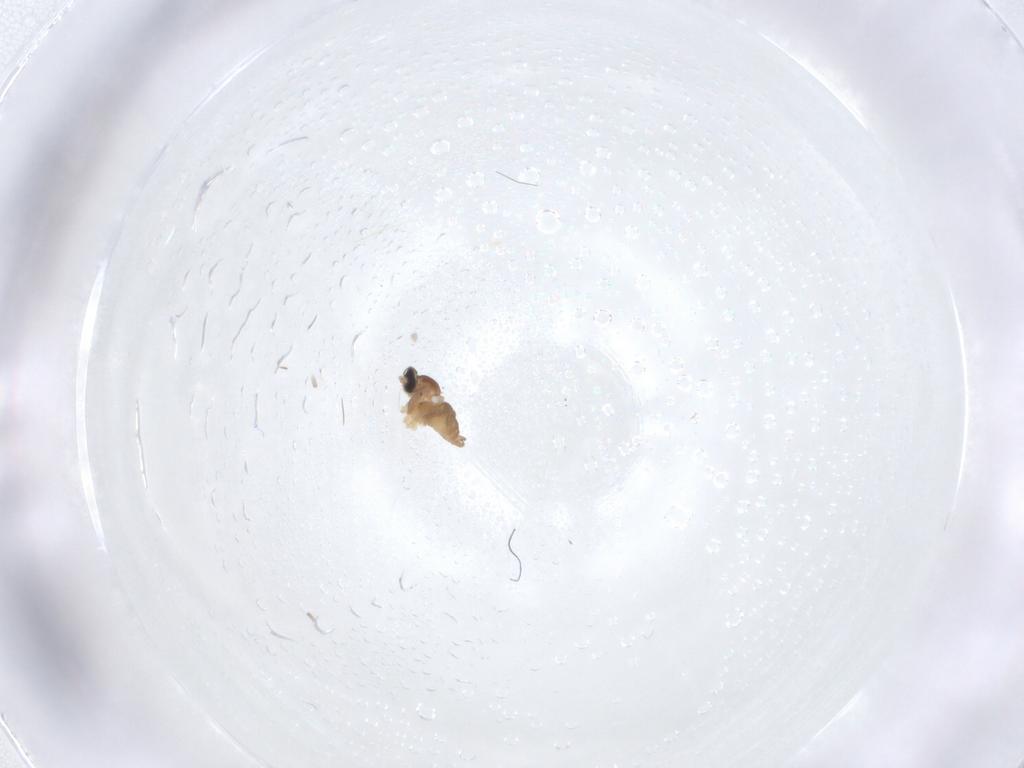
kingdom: Animalia
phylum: Arthropoda
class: Insecta
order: Diptera
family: Cecidomyiidae
